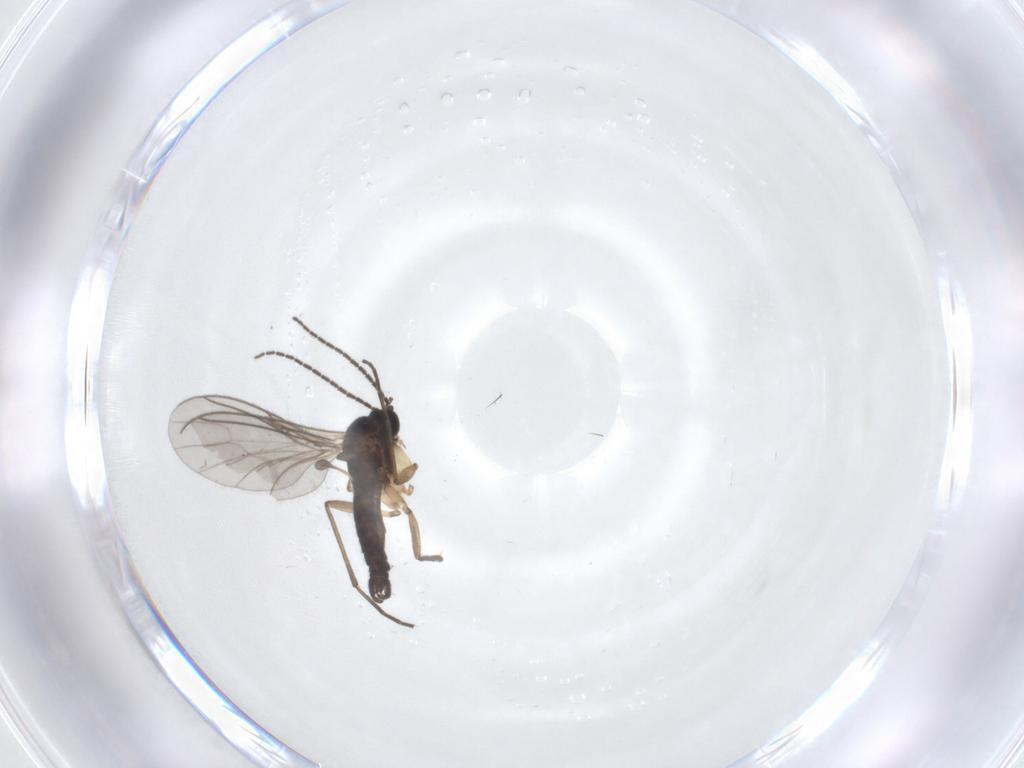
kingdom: Animalia
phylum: Arthropoda
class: Insecta
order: Diptera
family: Sciaridae
